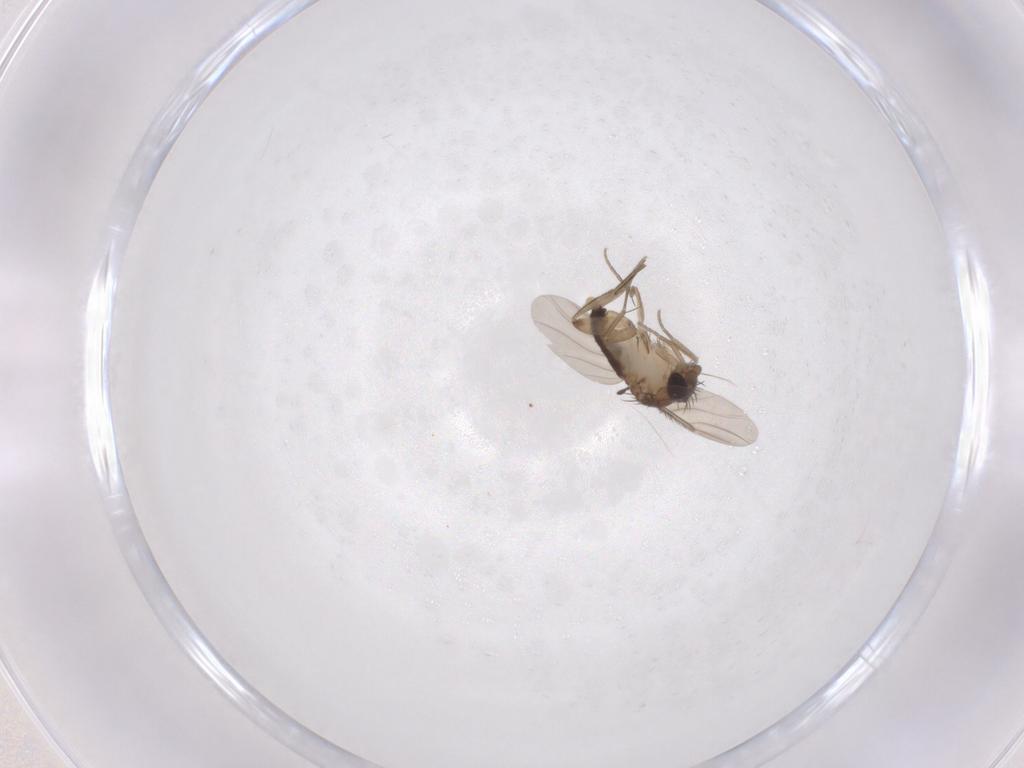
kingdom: Animalia
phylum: Arthropoda
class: Insecta
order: Diptera
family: Phoridae
